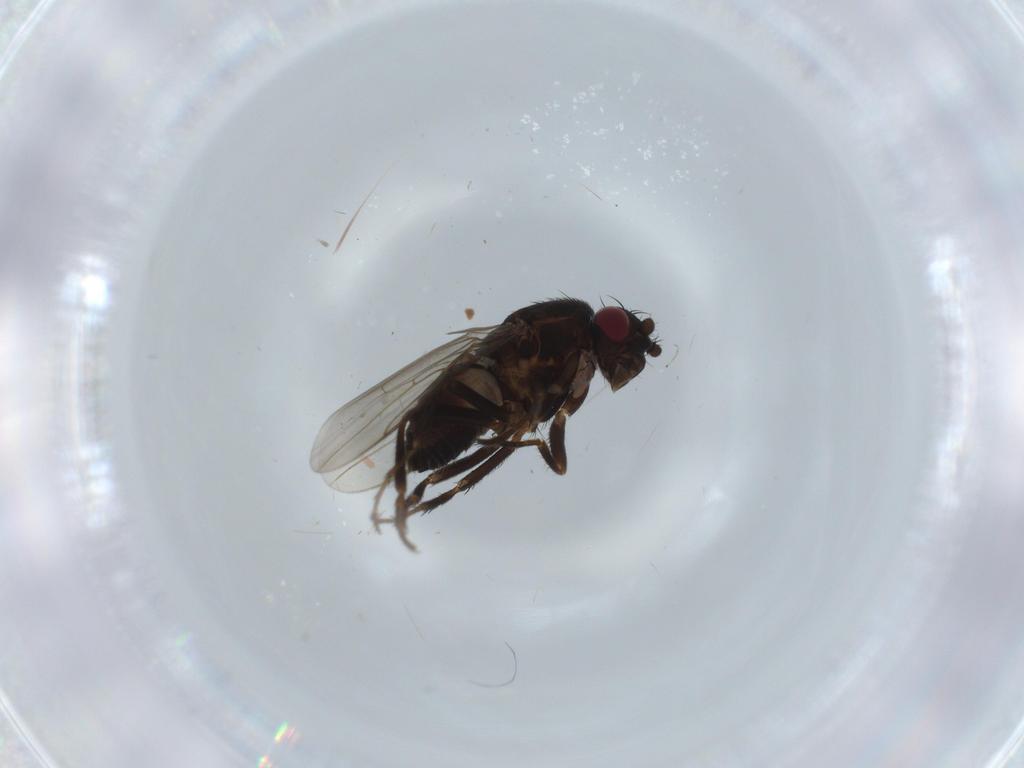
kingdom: Animalia
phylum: Arthropoda
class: Insecta
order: Diptera
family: Sphaeroceridae
